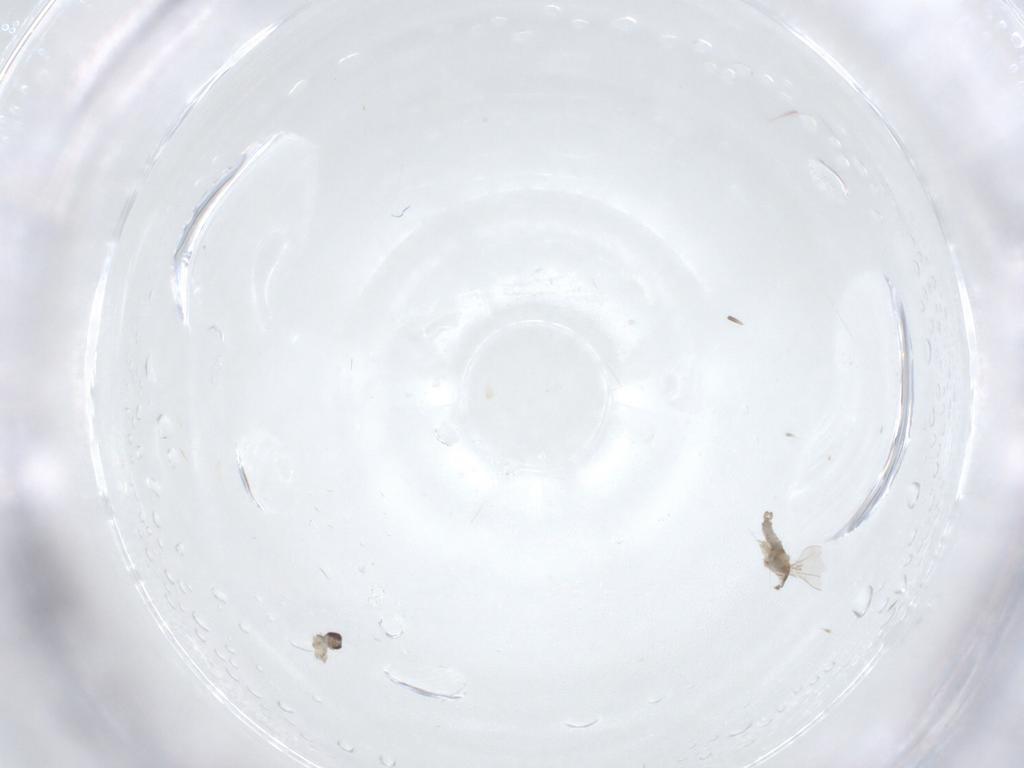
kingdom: Animalia
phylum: Arthropoda
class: Insecta
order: Diptera
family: Cecidomyiidae
